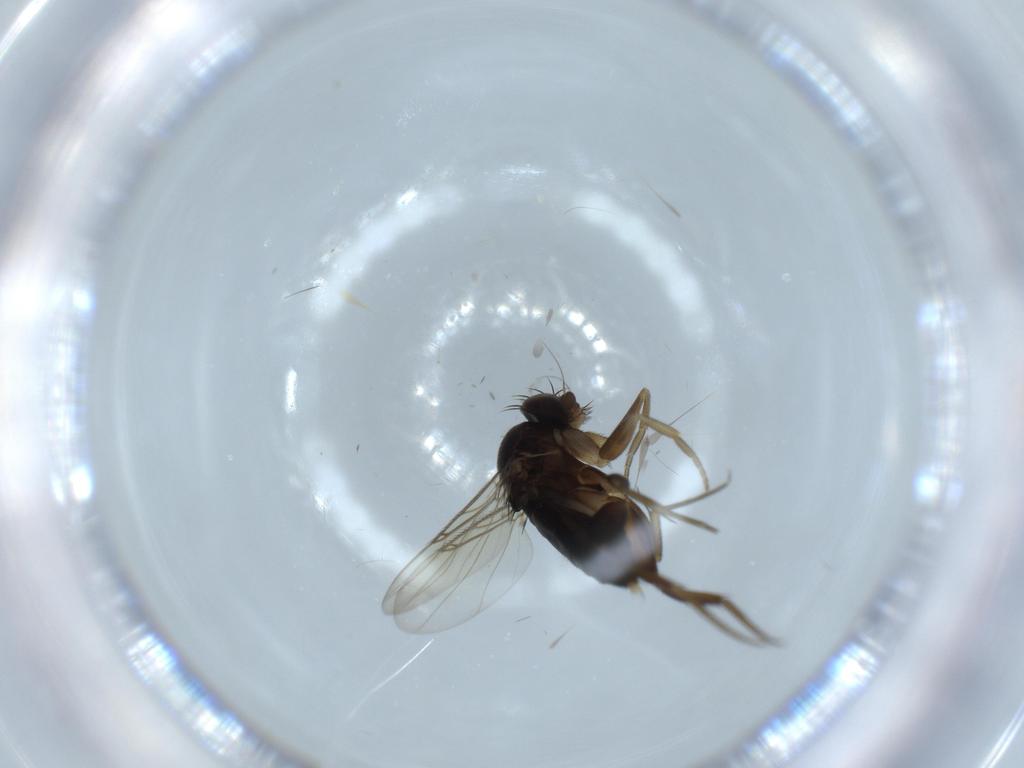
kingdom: Animalia
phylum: Arthropoda
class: Insecta
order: Diptera
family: Phoridae
